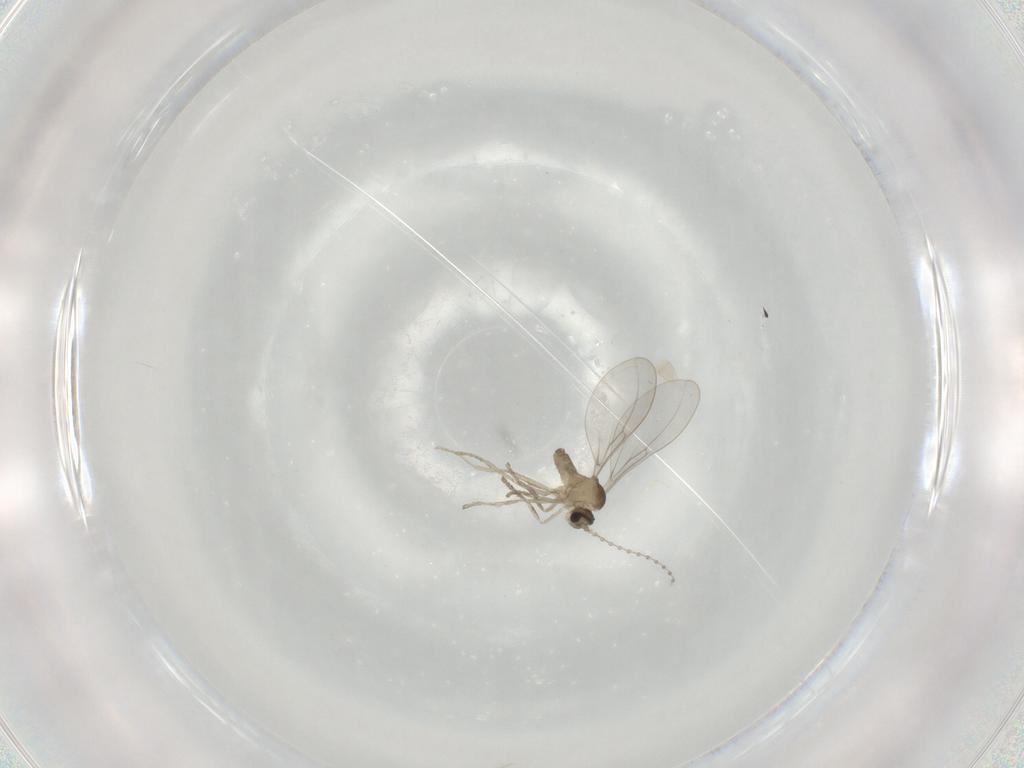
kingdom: Animalia
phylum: Arthropoda
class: Insecta
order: Diptera
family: Cecidomyiidae
